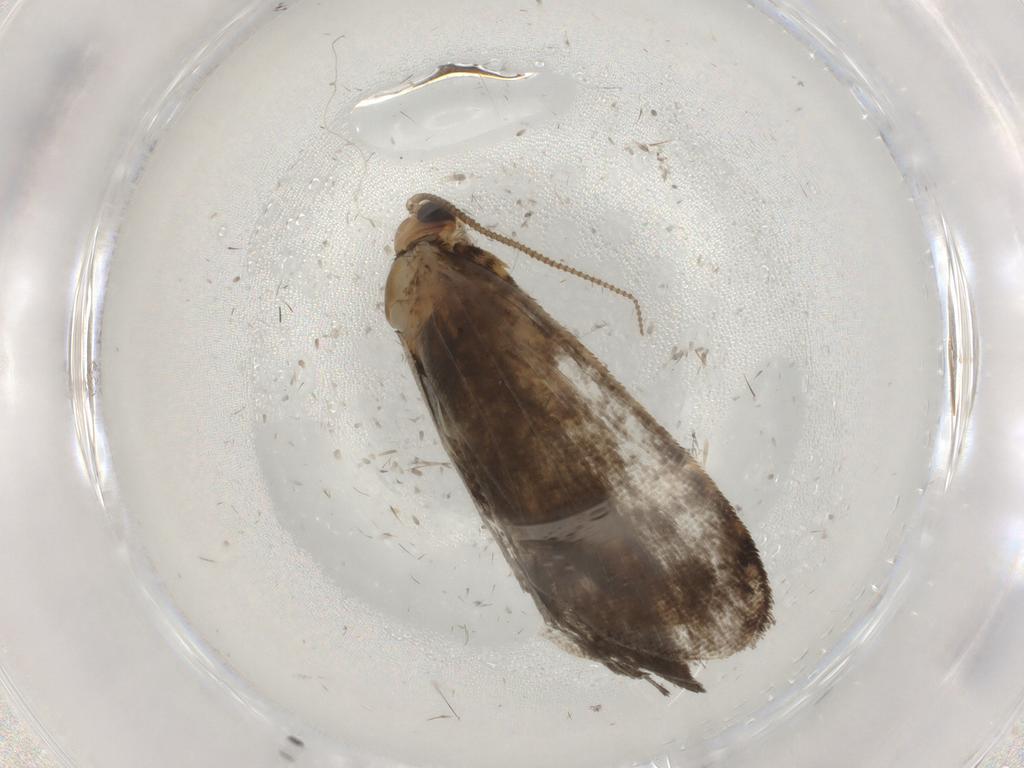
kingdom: Animalia
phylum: Arthropoda
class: Insecta
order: Lepidoptera
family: Tineidae
